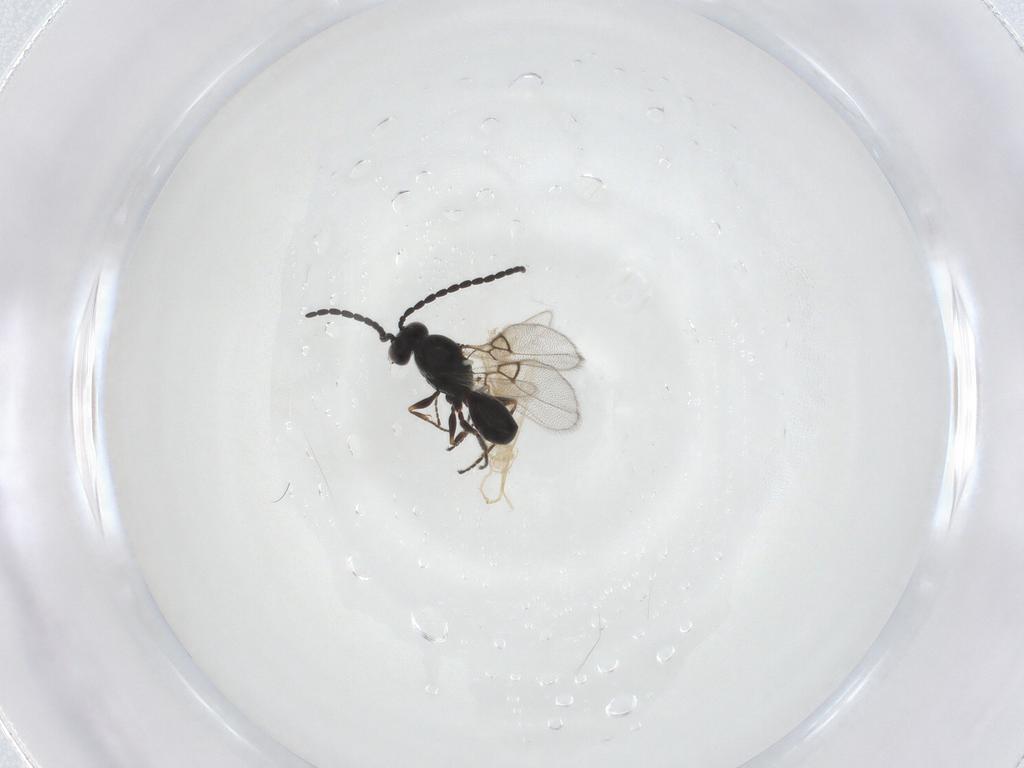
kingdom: Animalia
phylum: Arthropoda
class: Insecta
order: Hymenoptera
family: Figitidae
